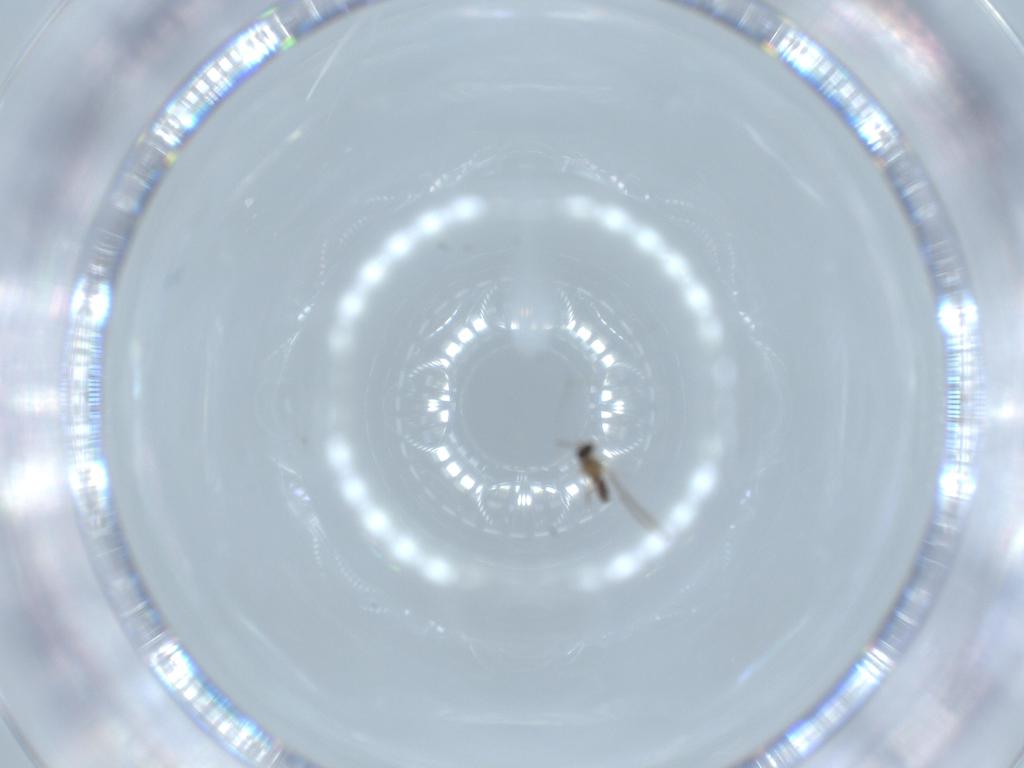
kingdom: Animalia
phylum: Arthropoda
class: Insecta
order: Diptera
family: Cecidomyiidae
